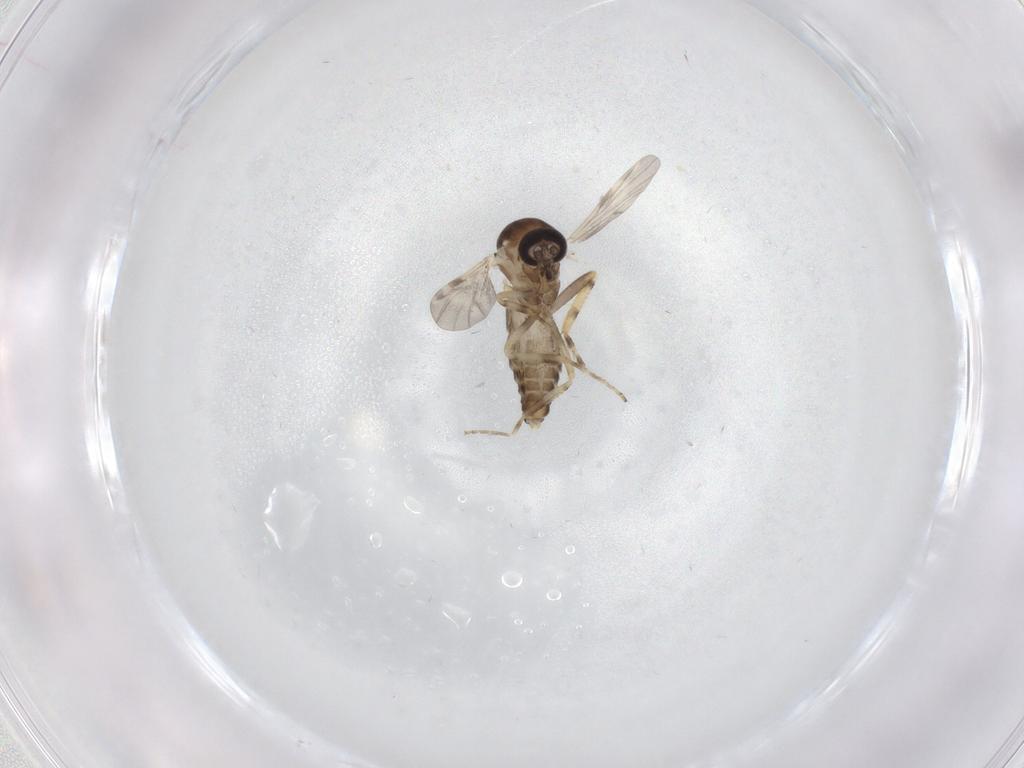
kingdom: Animalia
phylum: Arthropoda
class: Insecta
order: Diptera
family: Ceratopogonidae
